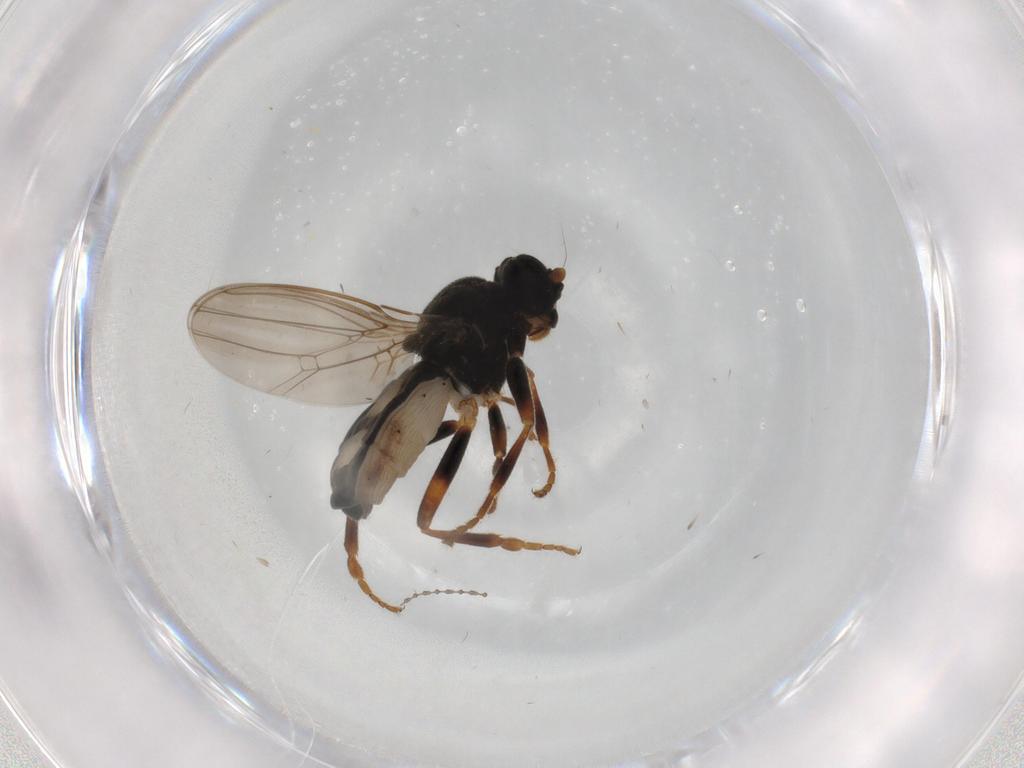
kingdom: Animalia
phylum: Arthropoda
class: Insecta
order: Diptera
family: Sphaeroceridae
